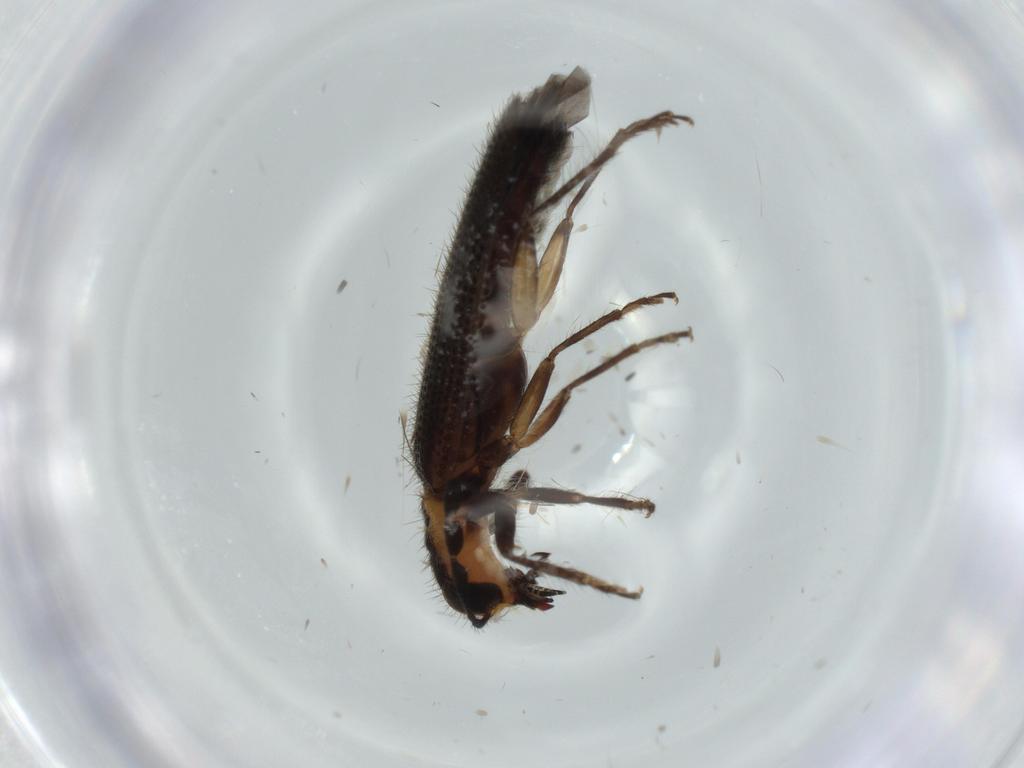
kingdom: Animalia
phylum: Arthropoda
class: Insecta
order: Coleoptera
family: Cleridae
